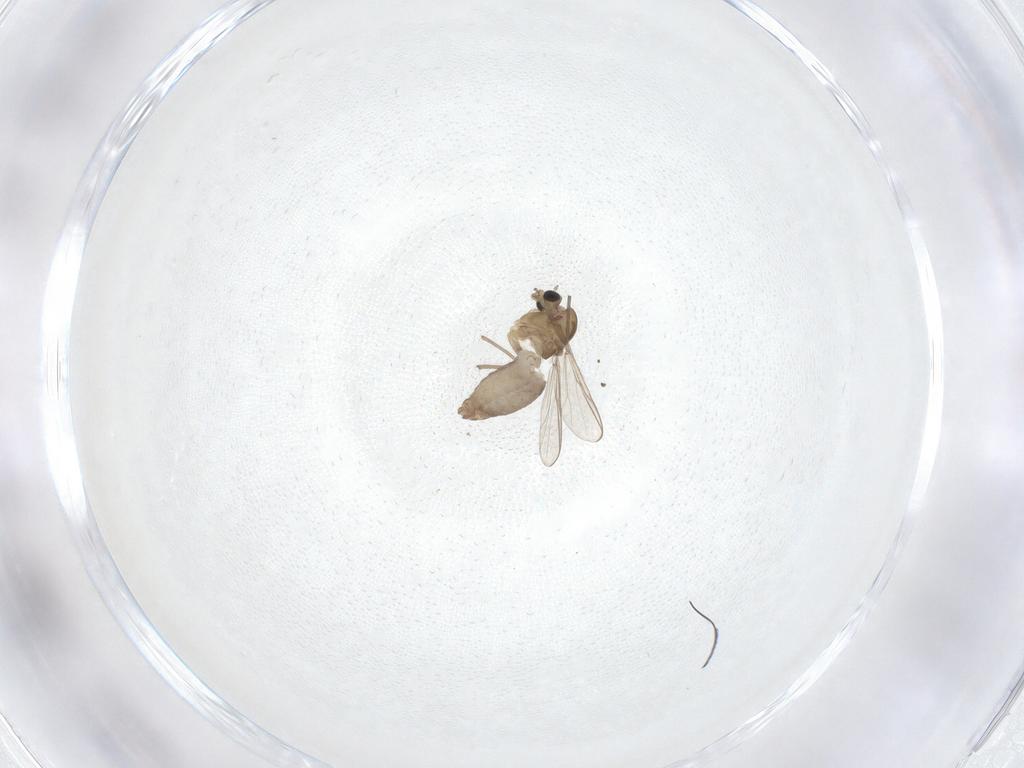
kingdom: Animalia
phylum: Arthropoda
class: Insecta
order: Diptera
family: Chironomidae
